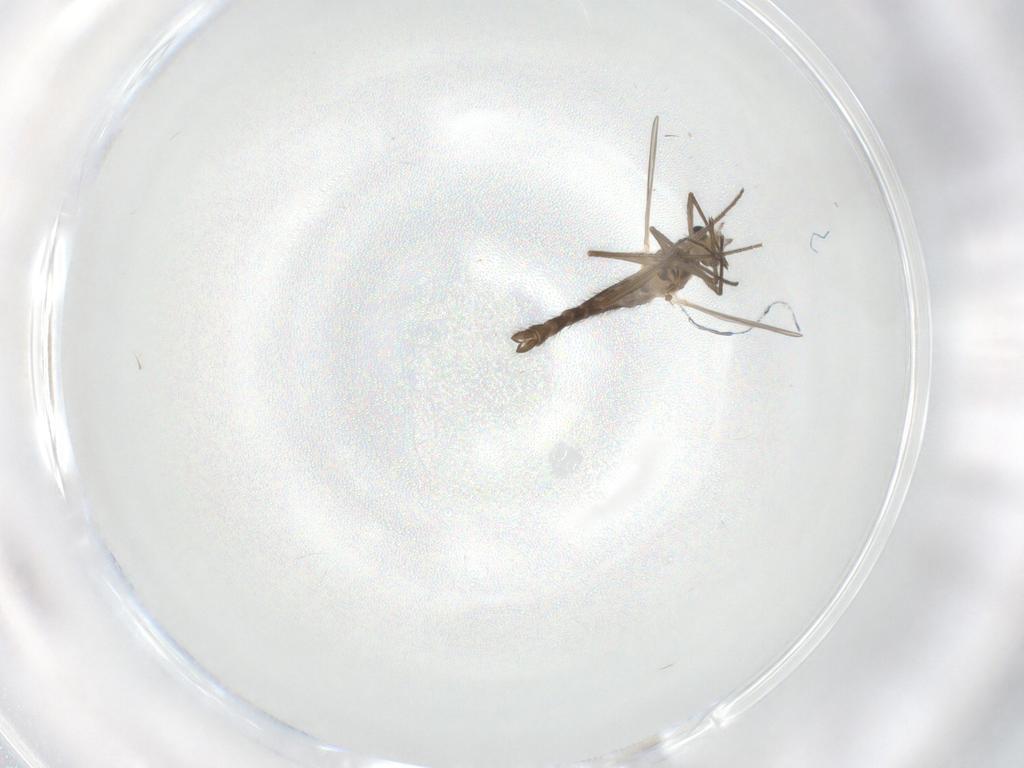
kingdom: Animalia
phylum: Arthropoda
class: Insecta
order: Diptera
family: Chironomidae
